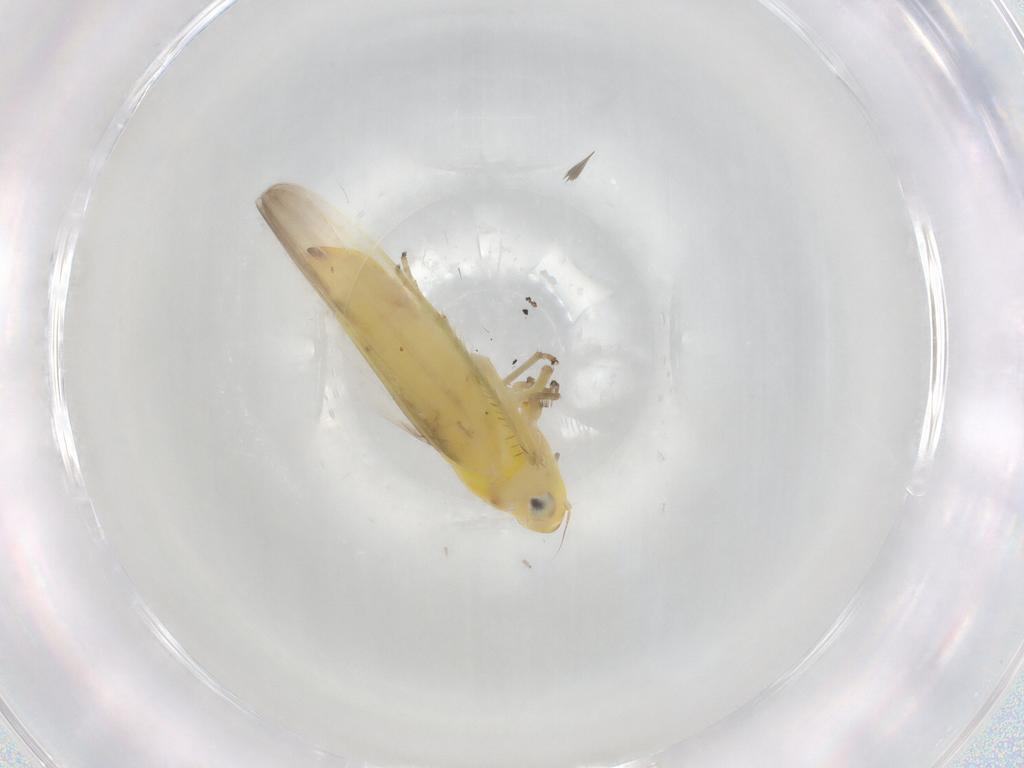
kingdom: Animalia
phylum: Arthropoda
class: Insecta
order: Hemiptera
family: Cicadellidae
